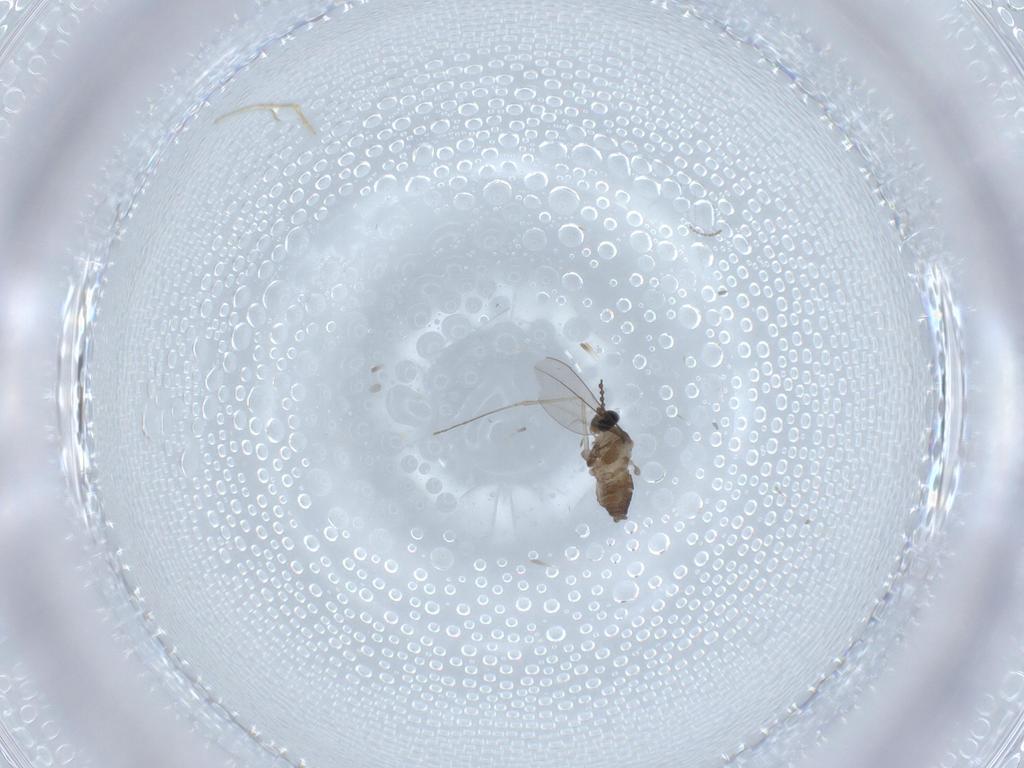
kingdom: Animalia
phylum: Arthropoda
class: Insecta
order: Diptera
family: Cecidomyiidae
